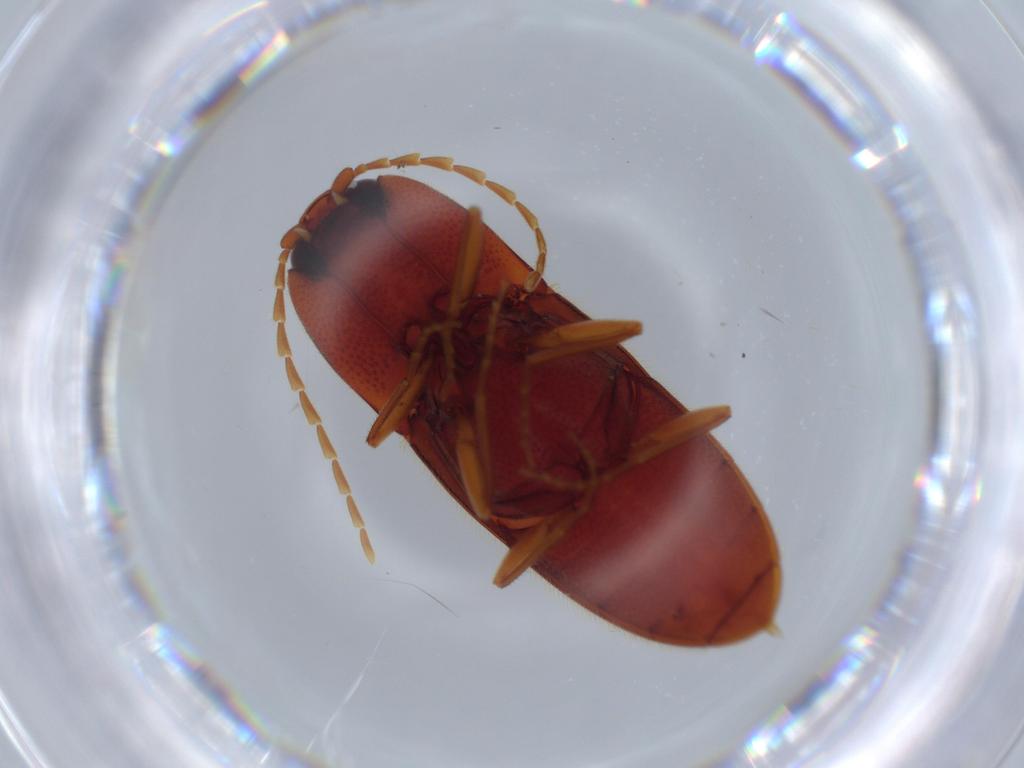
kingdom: Animalia
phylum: Arthropoda
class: Insecta
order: Coleoptera
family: Elateridae
